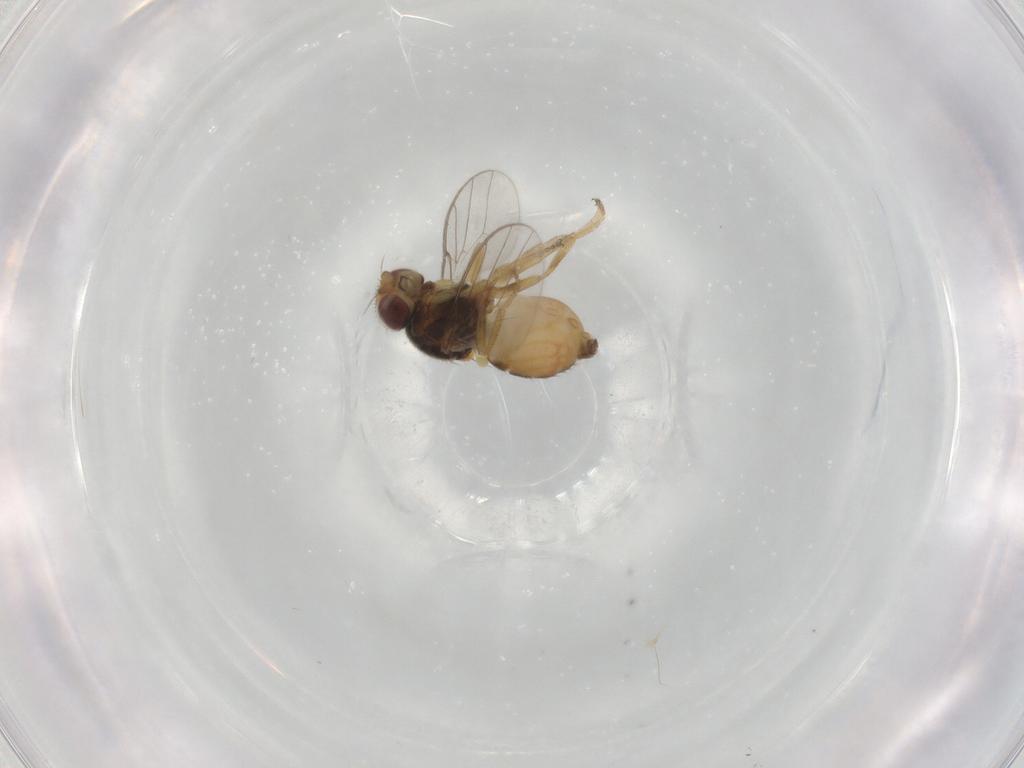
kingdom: Animalia
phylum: Arthropoda
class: Insecta
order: Diptera
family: Chloropidae
